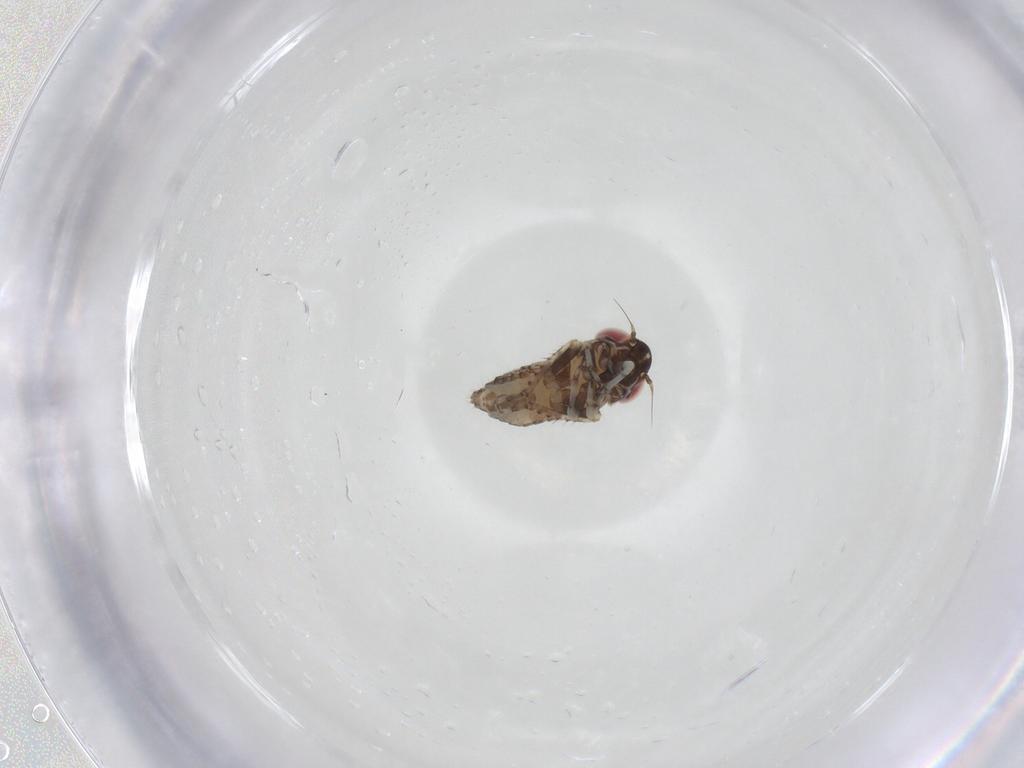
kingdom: Animalia
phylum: Arthropoda
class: Insecta
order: Hemiptera
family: Cicadellidae
